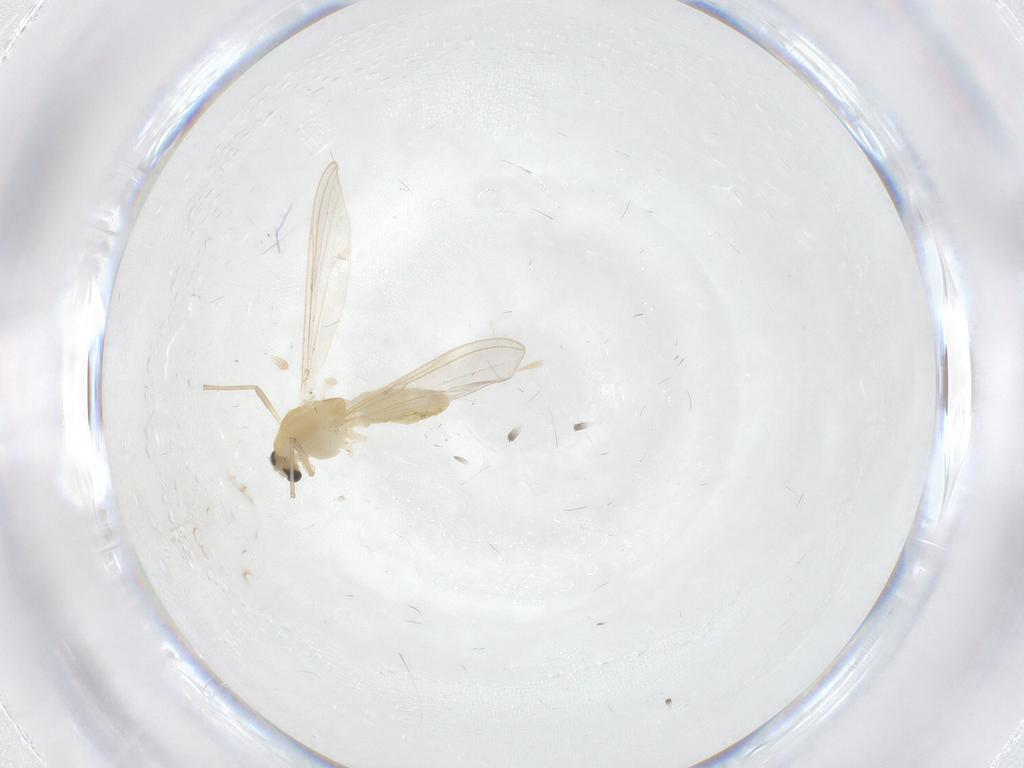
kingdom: Animalia
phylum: Arthropoda
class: Insecta
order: Diptera
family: Chironomidae
